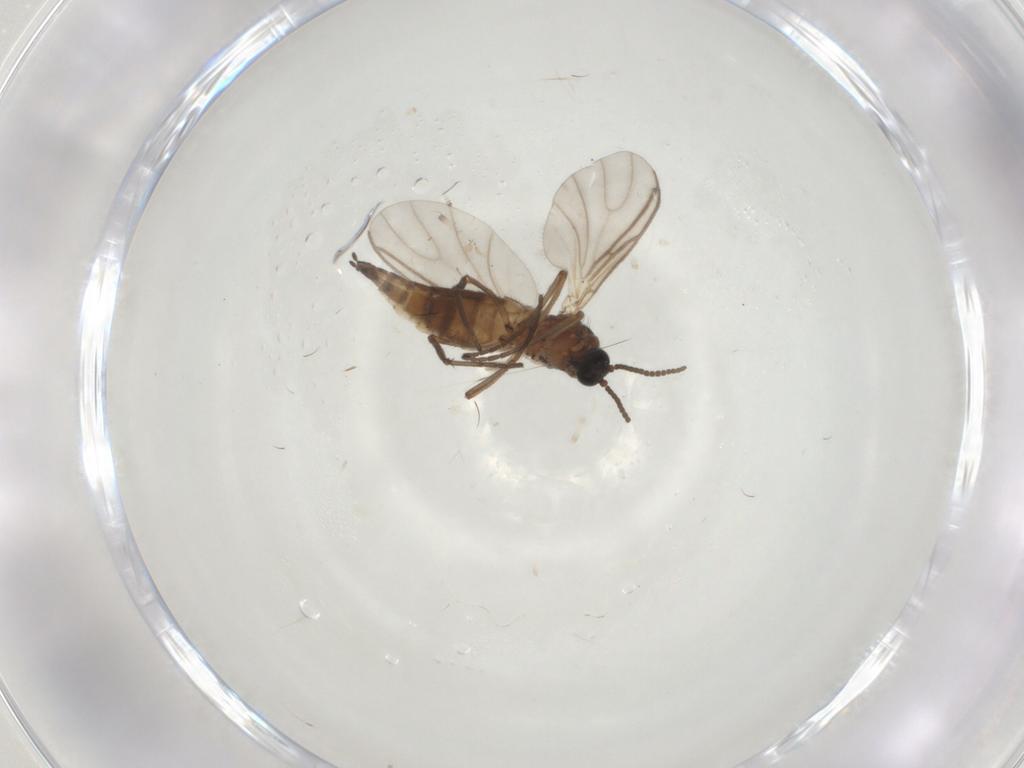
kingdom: Animalia
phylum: Arthropoda
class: Insecta
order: Diptera
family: Sciaridae
